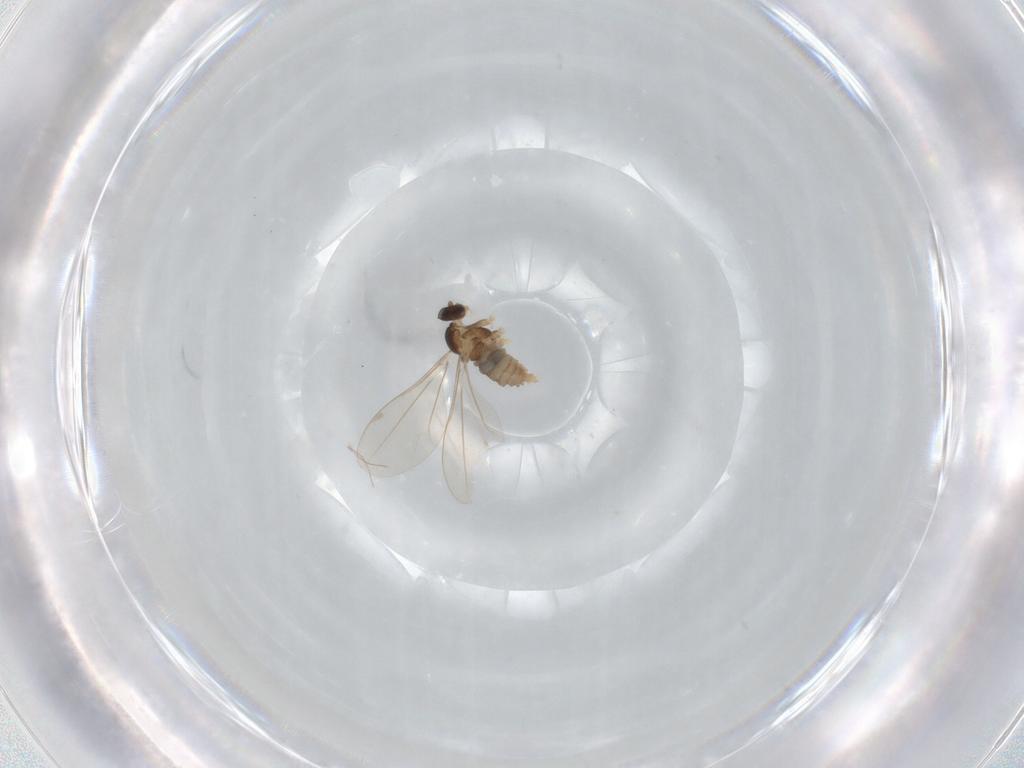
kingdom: Animalia
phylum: Arthropoda
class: Insecta
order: Diptera
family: Cecidomyiidae
